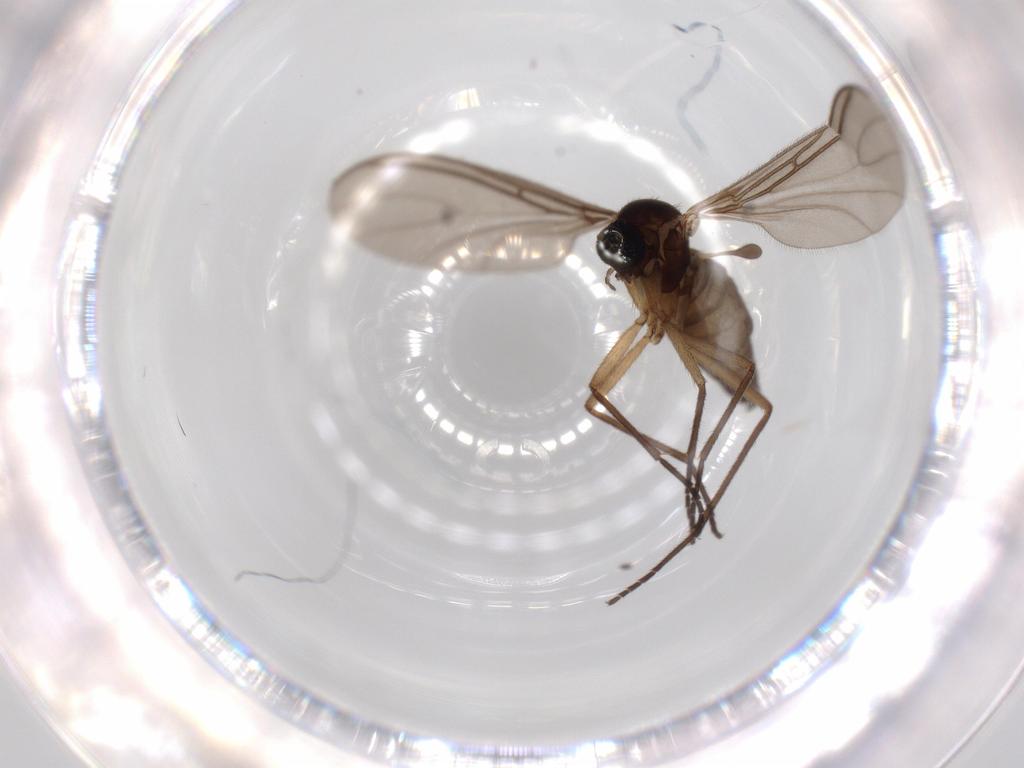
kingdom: Animalia
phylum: Arthropoda
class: Insecta
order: Diptera
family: Sciaridae
